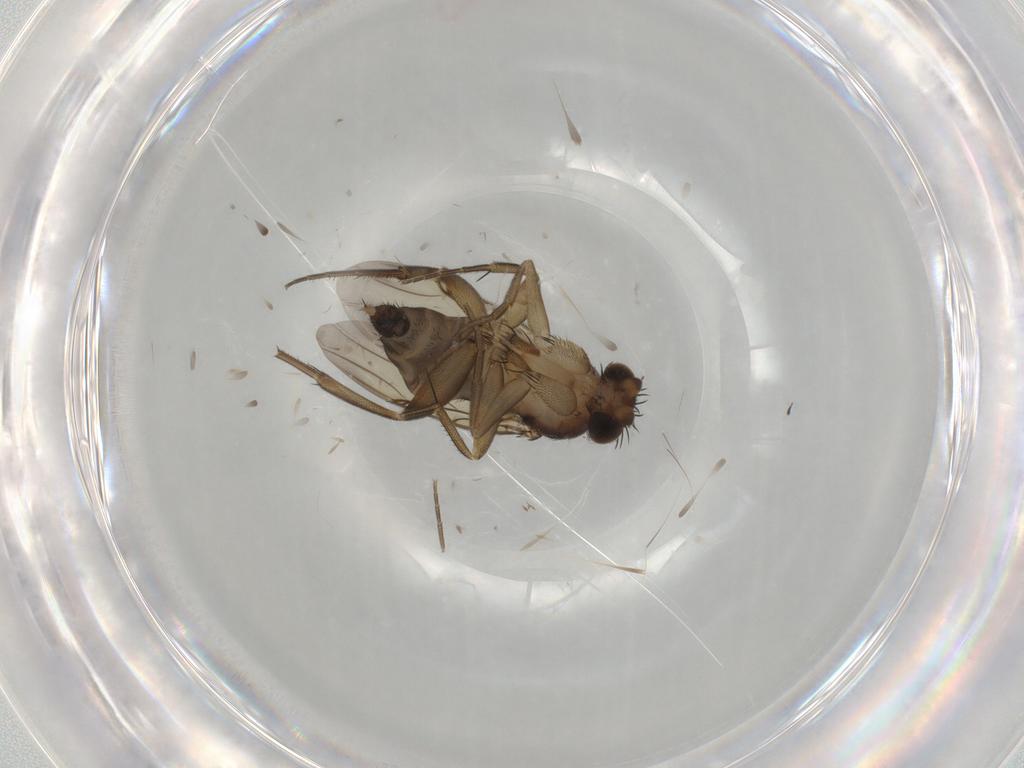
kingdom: Animalia
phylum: Arthropoda
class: Insecta
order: Diptera
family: Phoridae
